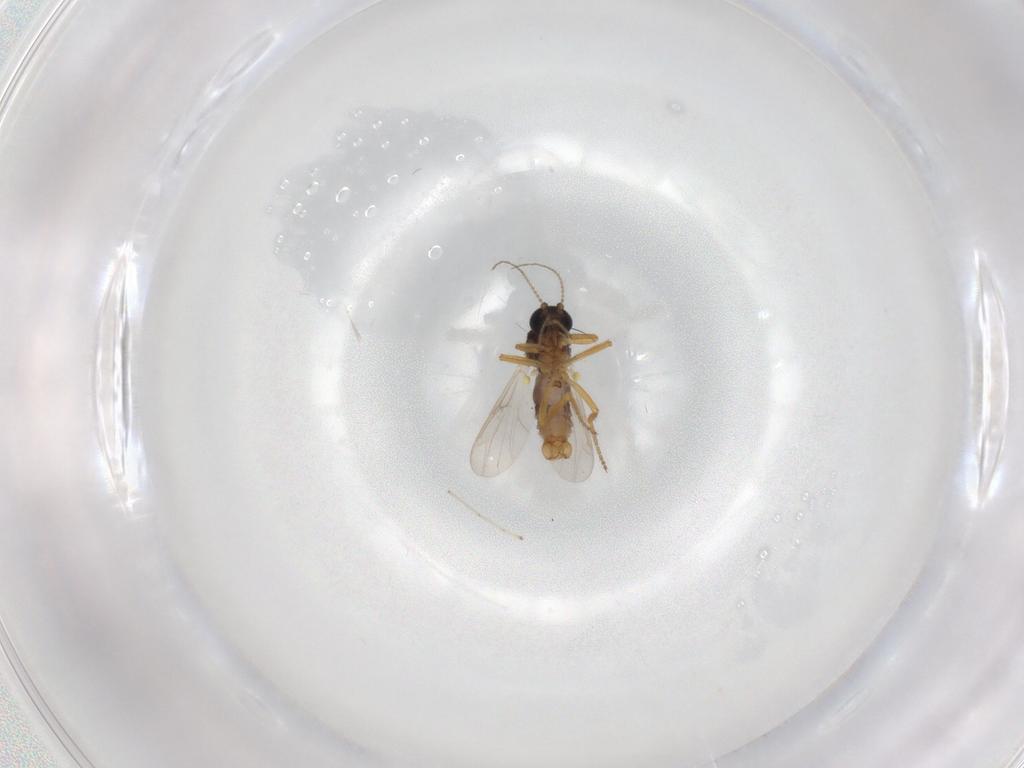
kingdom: Animalia
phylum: Arthropoda
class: Insecta
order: Diptera
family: Ceratopogonidae
